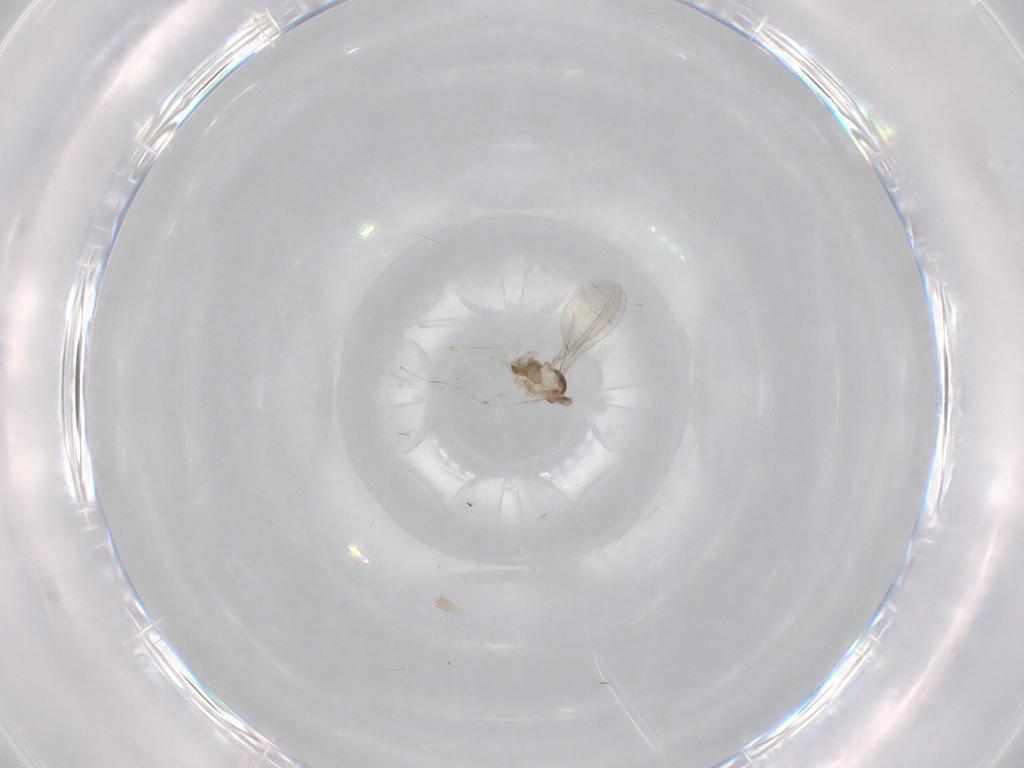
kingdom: Animalia
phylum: Arthropoda
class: Insecta
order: Diptera
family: Cecidomyiidae
